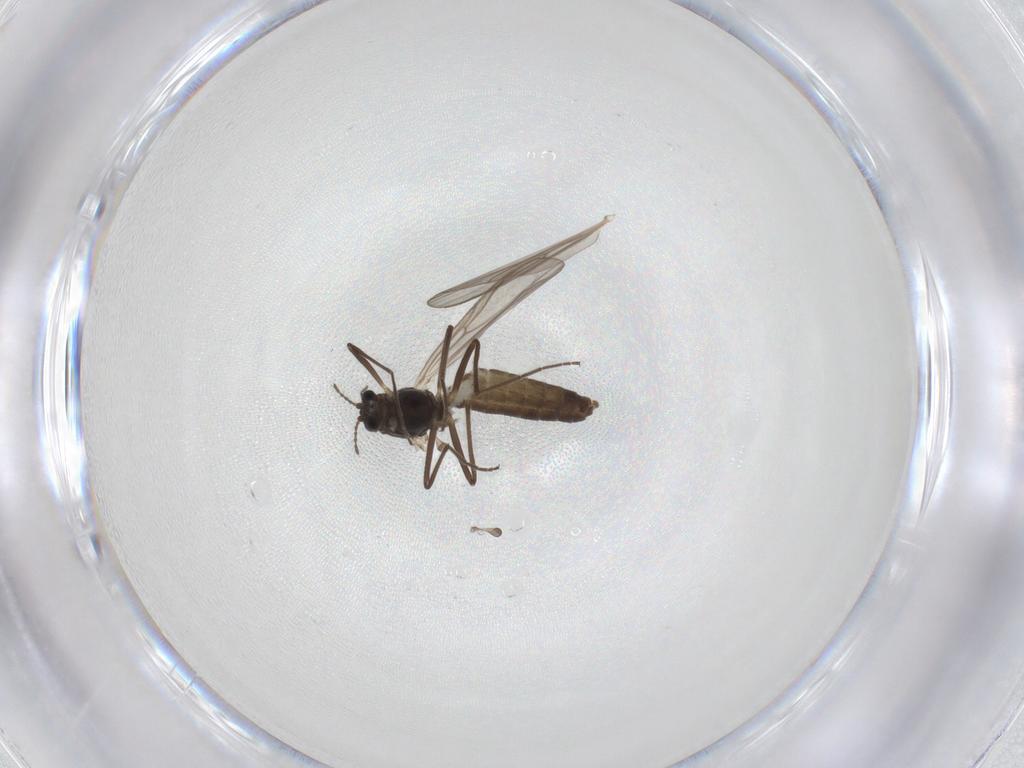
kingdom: Animalia
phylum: Arthropoda
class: Insecta
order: Diptera
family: Chironomidae
